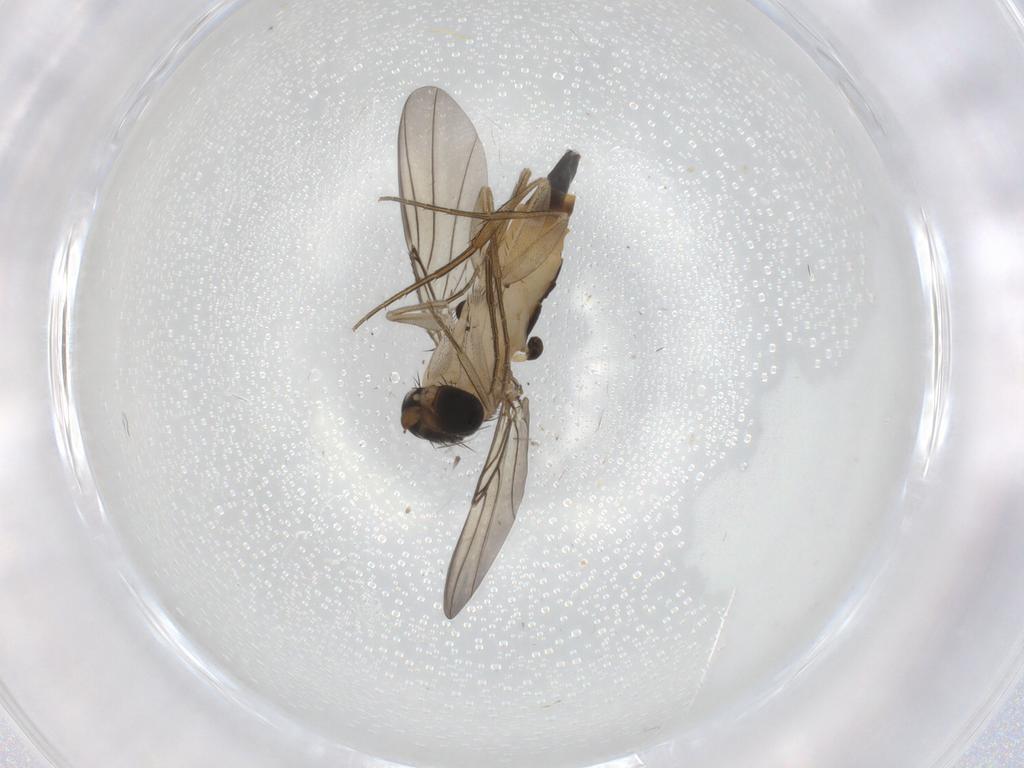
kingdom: Animalia
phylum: Arthropoda
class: Insecta
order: Diptera
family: Phoridae
